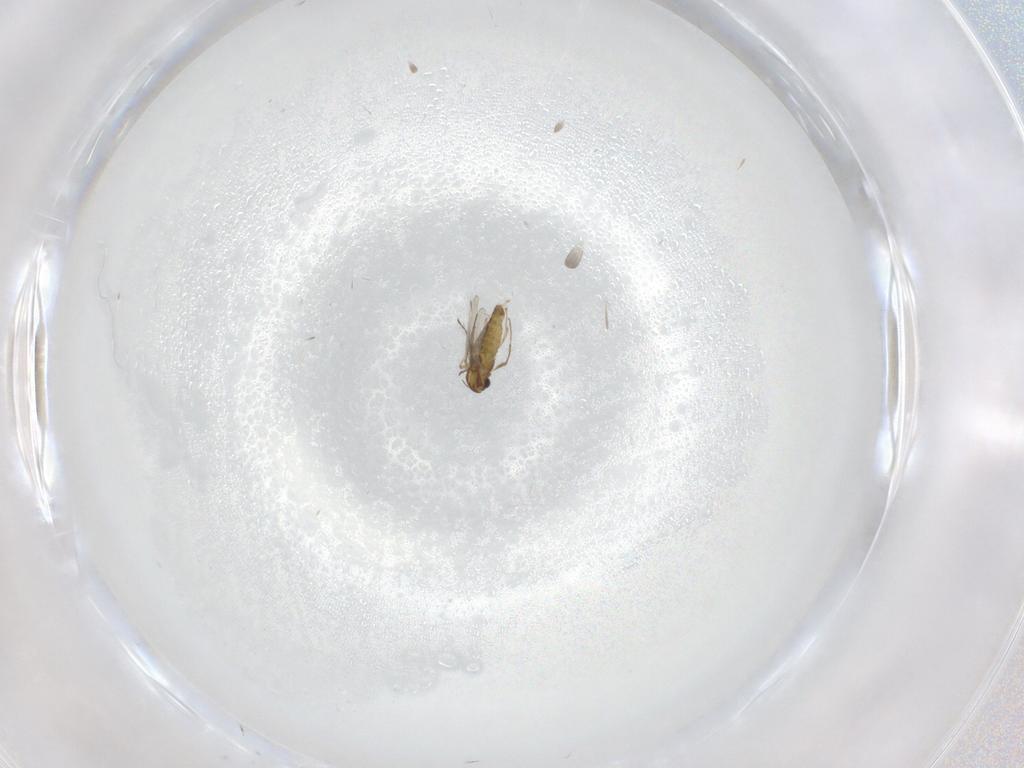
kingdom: Animalia
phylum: Arthropoda
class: Insecta
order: Diptera
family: Chironomidae
